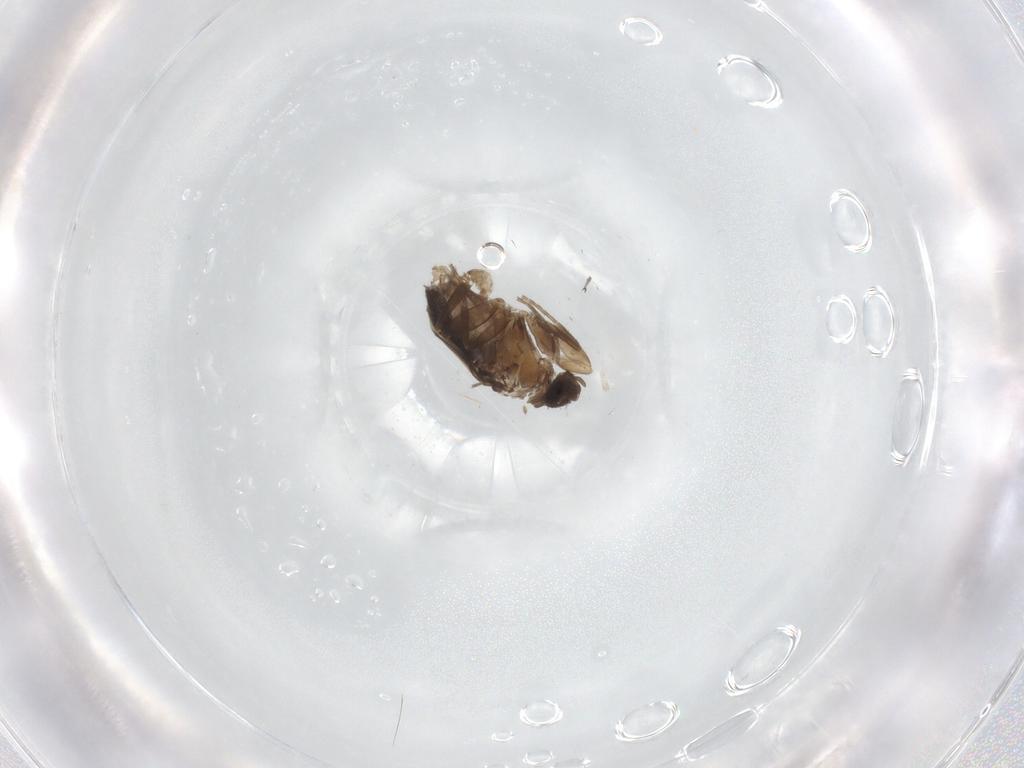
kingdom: Animalia
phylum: Arthropoda
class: Insecta
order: Diptera
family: Phoridae
